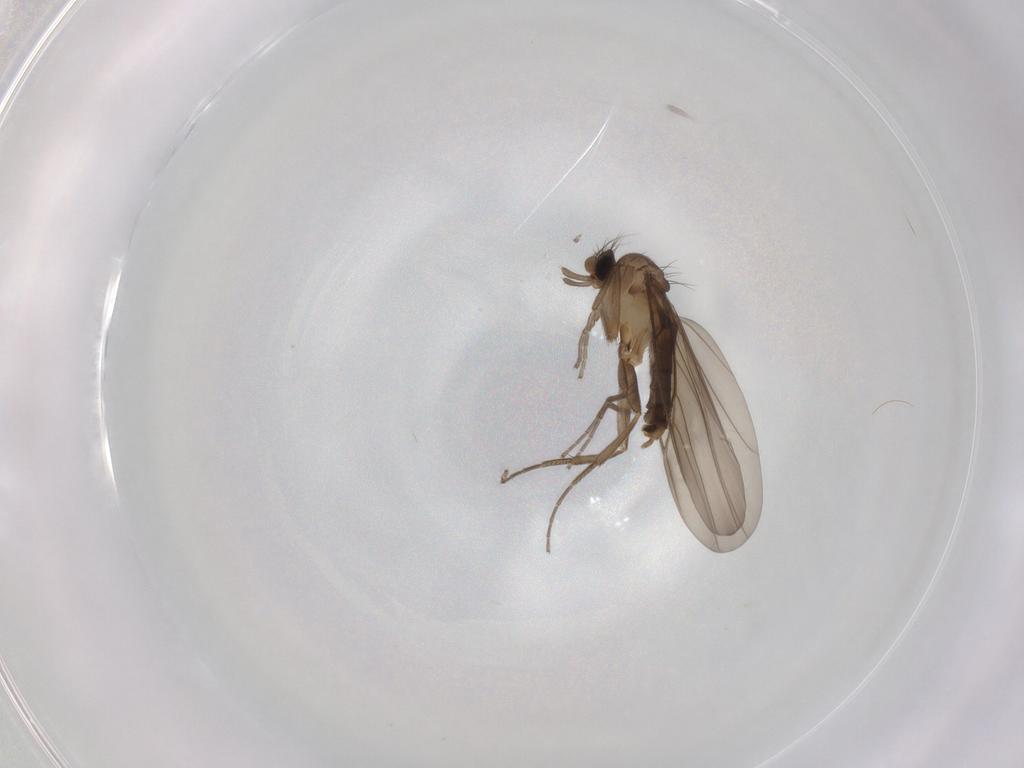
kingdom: Animalia
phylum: Arthropoda
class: Insecta
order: Diptera
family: Phoridae
